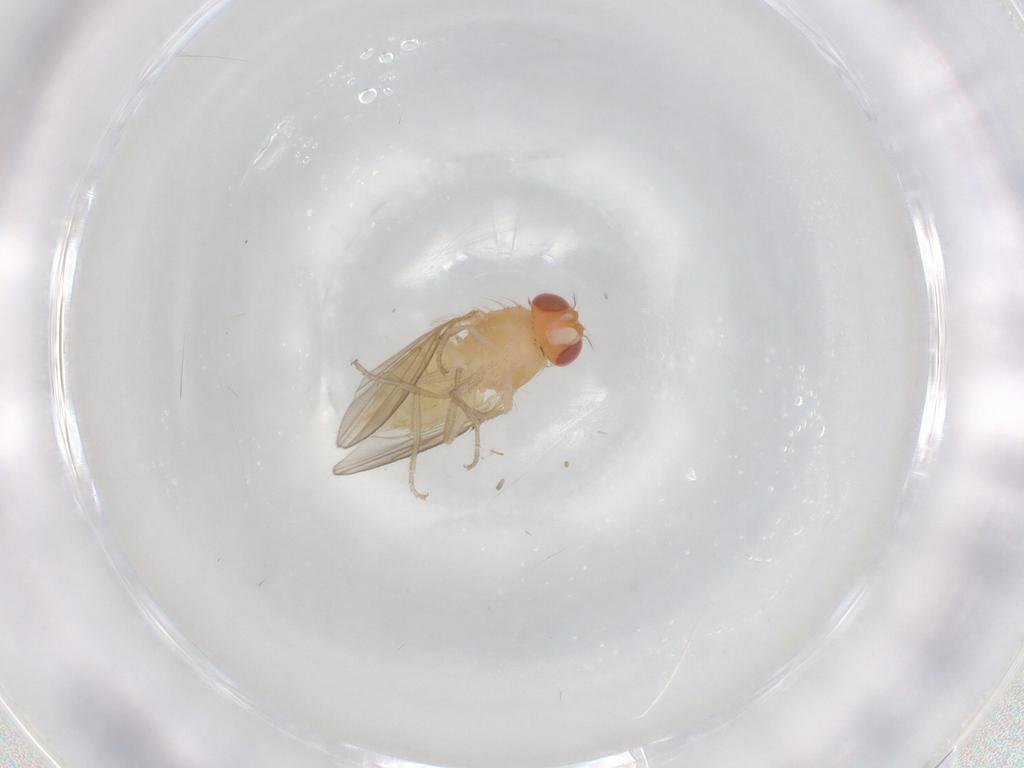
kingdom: Animalia
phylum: Arthropoda
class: Insecta
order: Diptera
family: Drosophilidae
